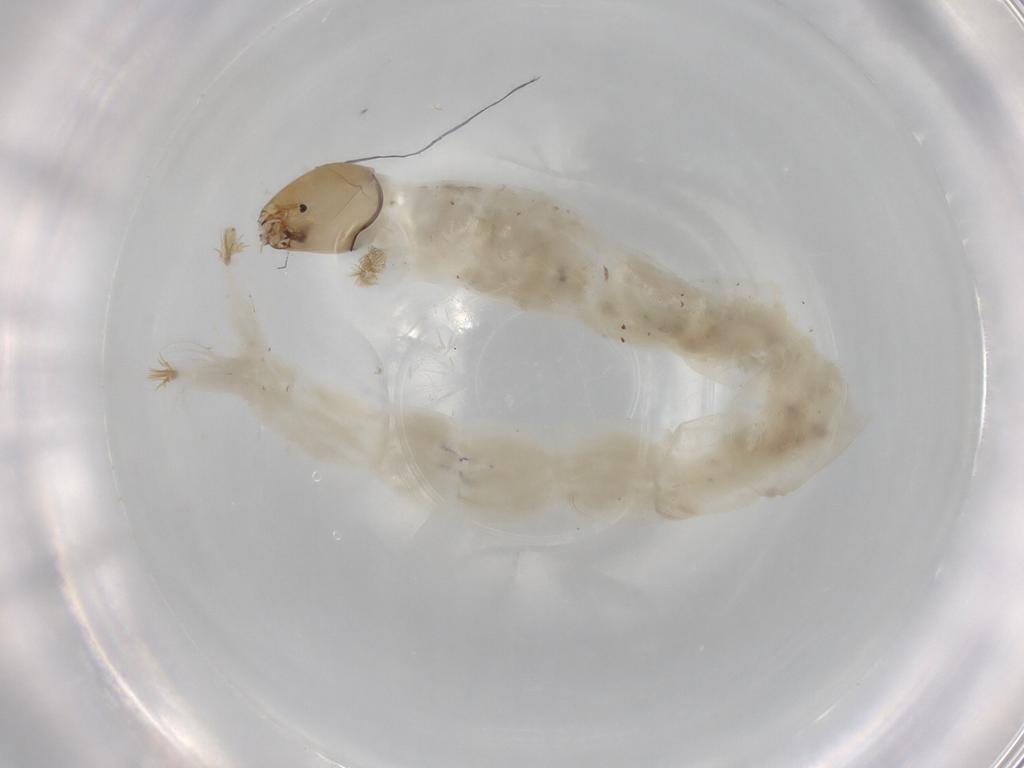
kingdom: Animalia
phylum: Arthropoda
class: Insecta
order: Diptera
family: Chironomidae
